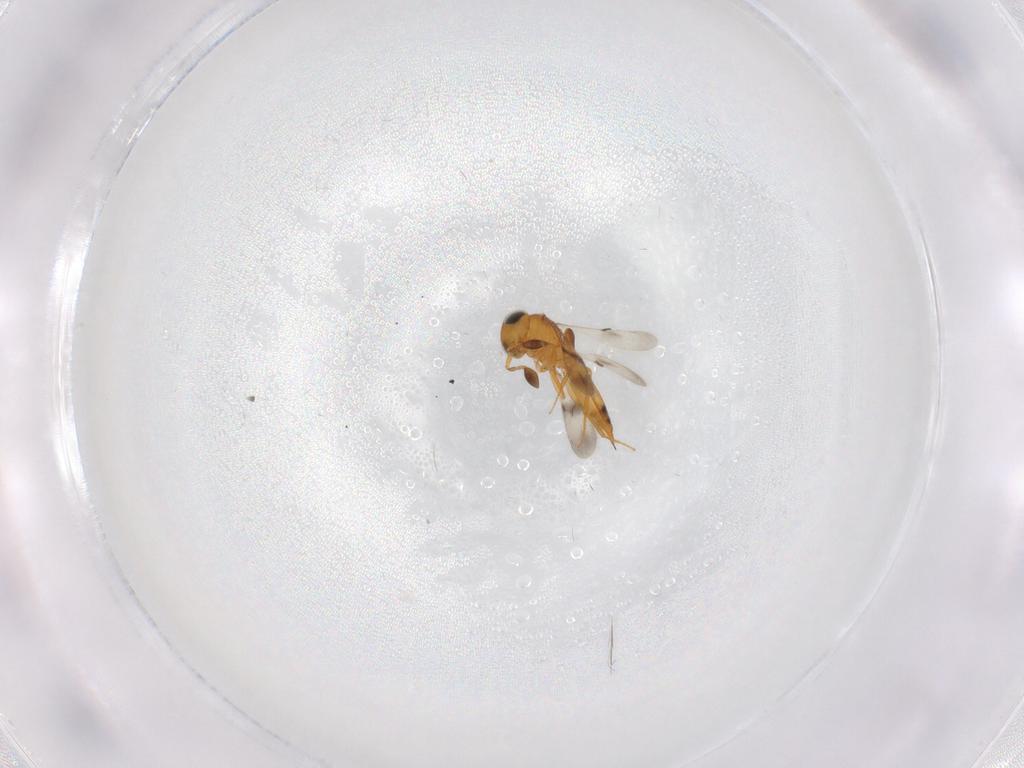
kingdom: Animalia
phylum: Arthropoda
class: Insecta
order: Hymenoptera
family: Scelionidae
